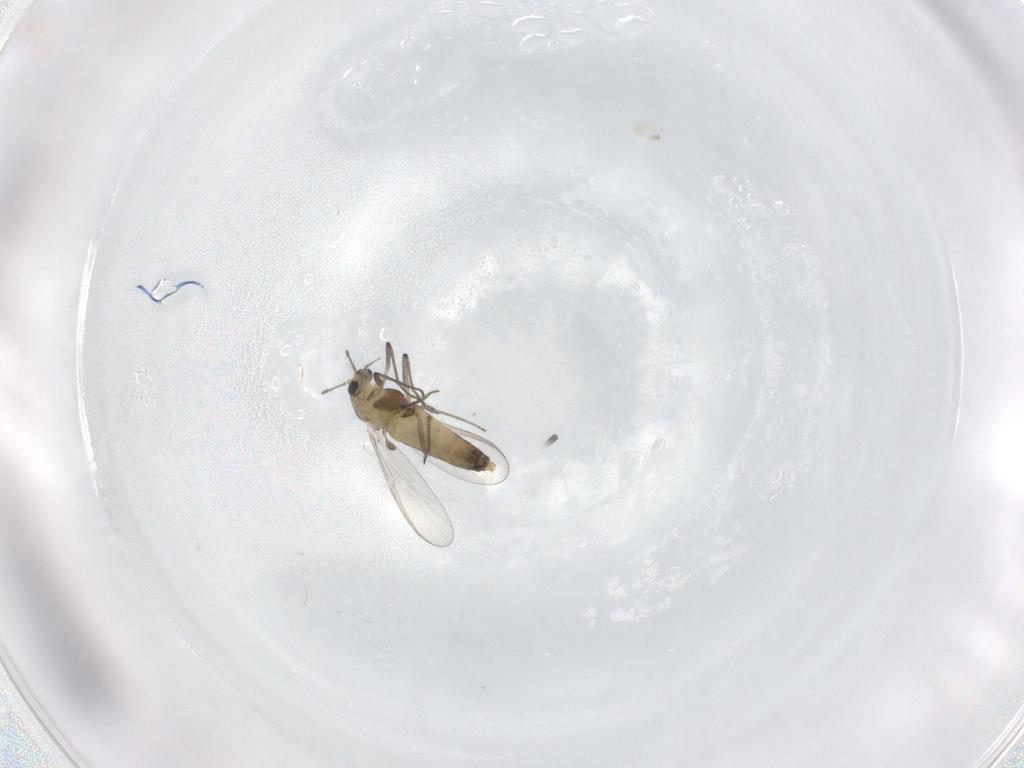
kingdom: Animalia
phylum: Arthropoda
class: Insecta
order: Diptera
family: Chironomidae
